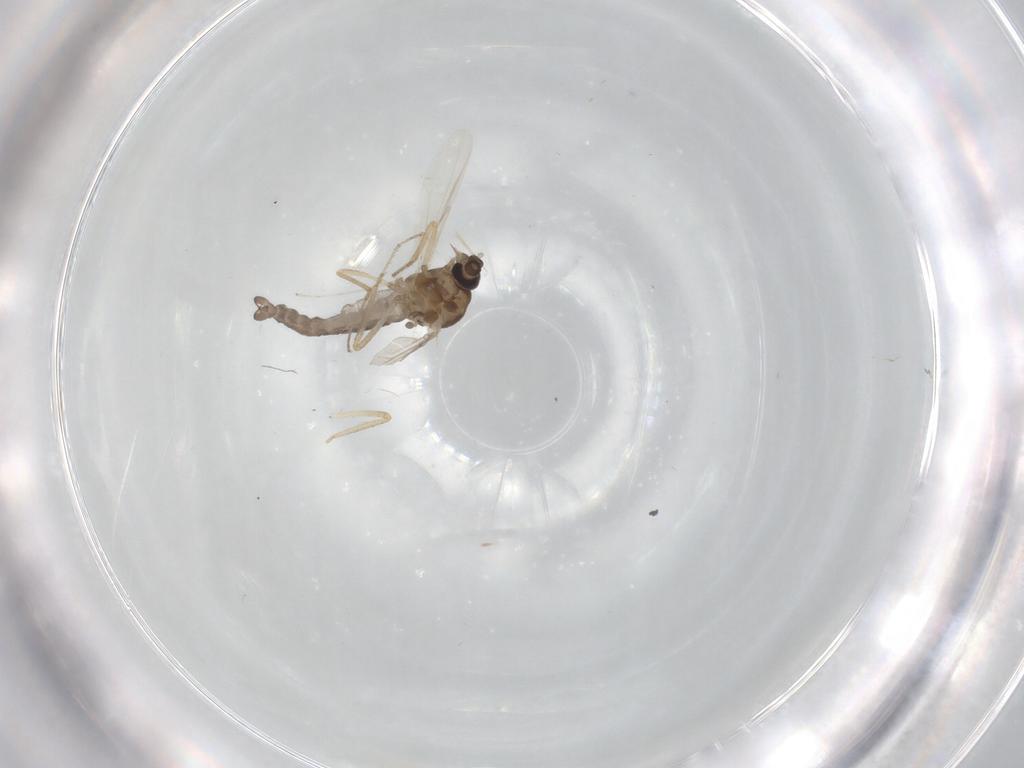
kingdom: Animalia
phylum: Arthropoda
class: Insecta
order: Diptera
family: Ceratopogonidae
